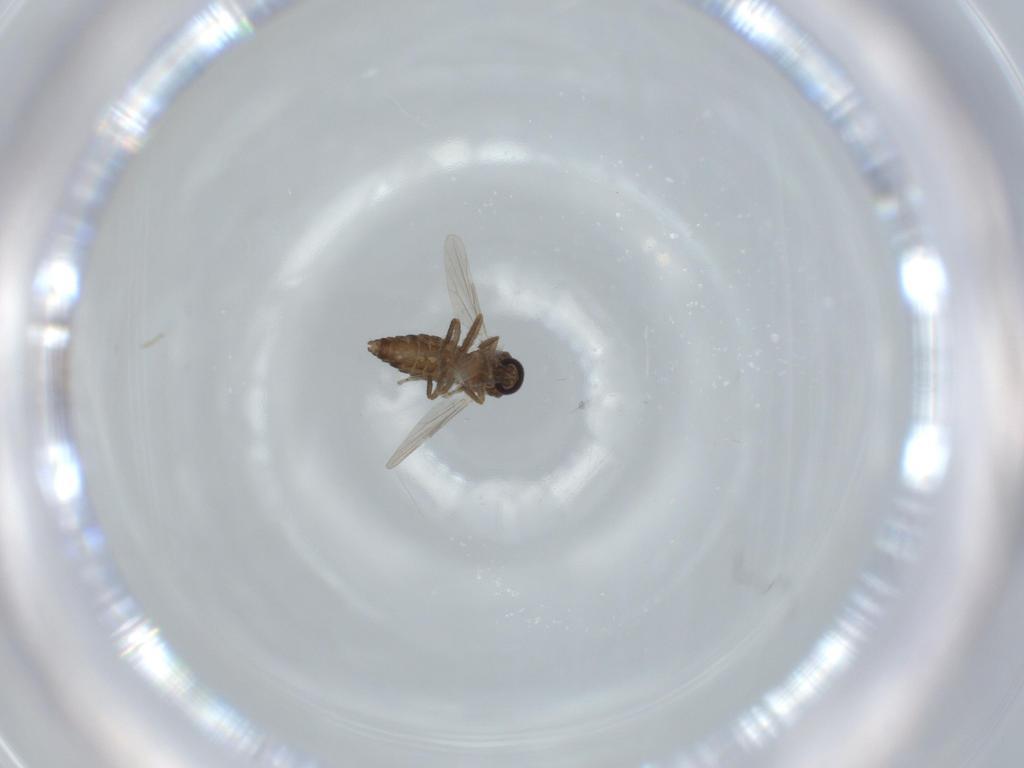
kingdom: Animalia
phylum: Arthropoda
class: Insecta
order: Diptera
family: Ceratopogonidae
